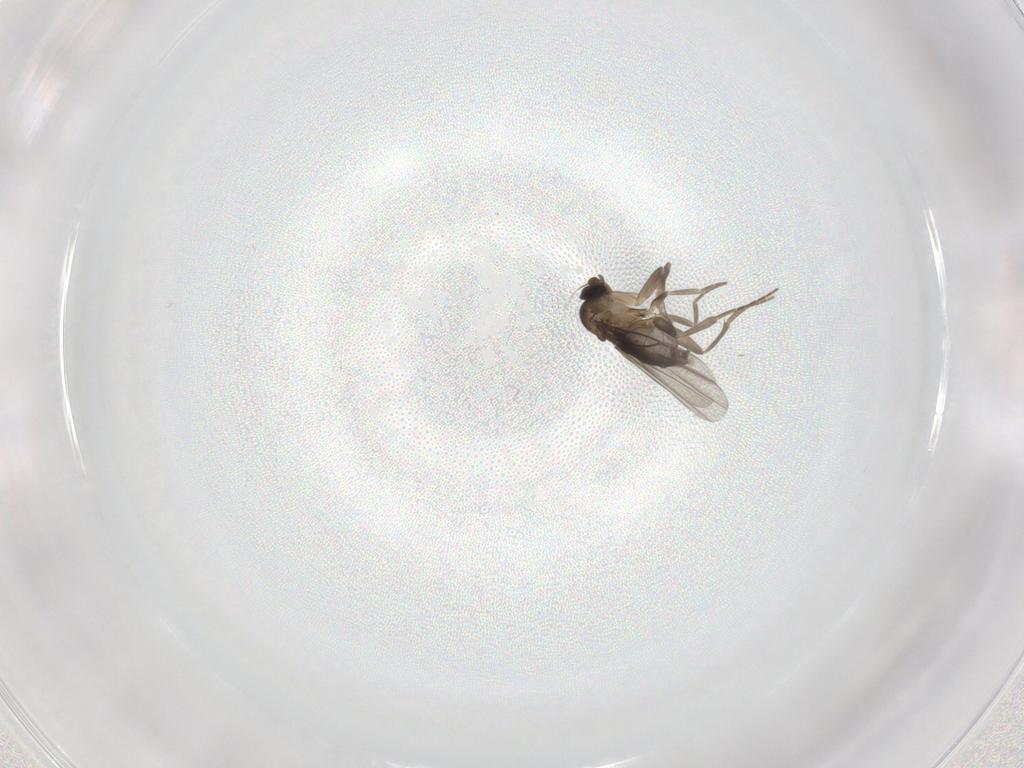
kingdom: Animalia
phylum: Arthropoda
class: Insecta
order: Diptera
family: Phoridae
